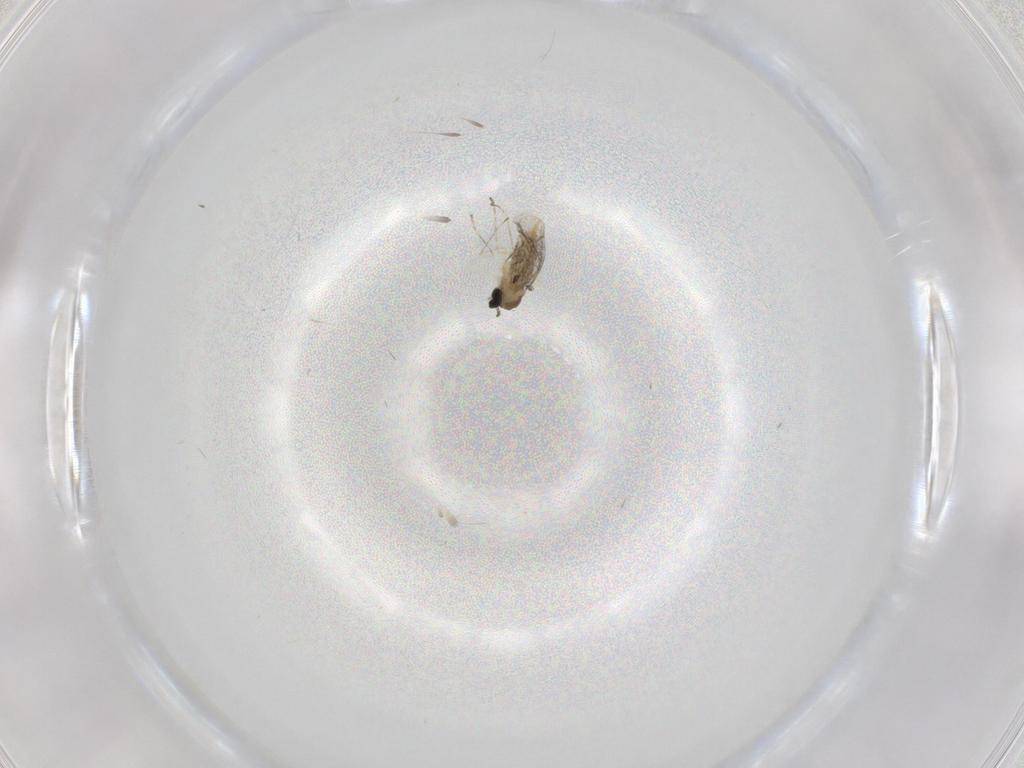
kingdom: Animalia
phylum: Arthropoda
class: Insecta
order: Diptera
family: Cecidomyiidae
